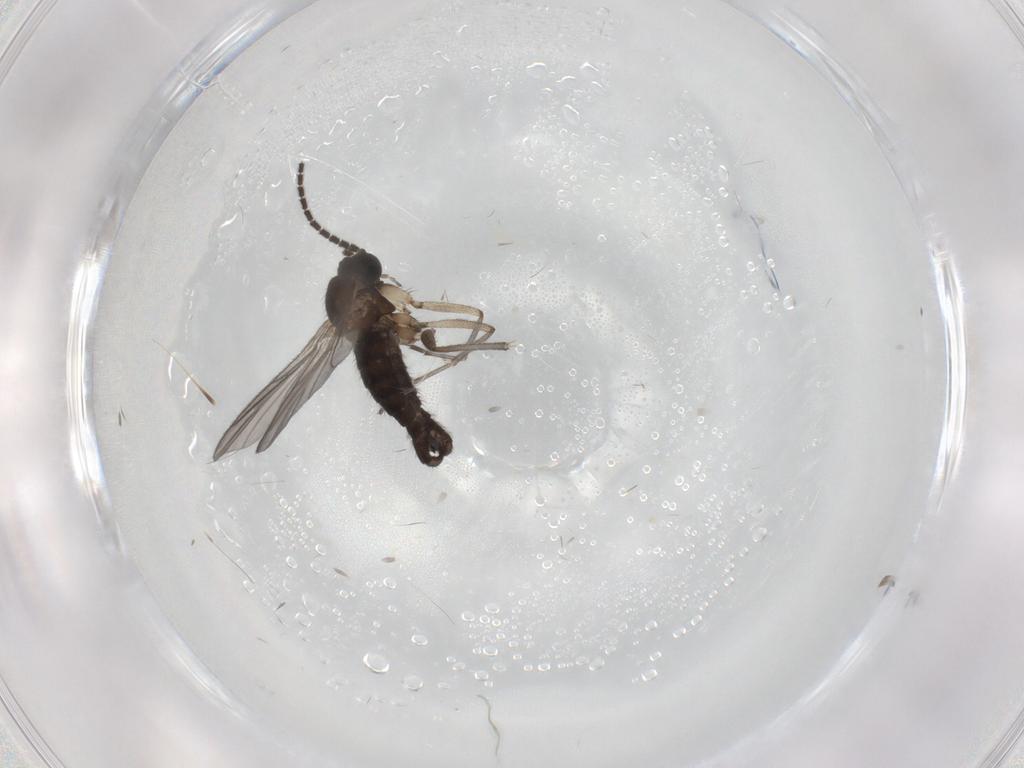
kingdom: Animalia
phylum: Arthropoda
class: Insecta
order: Diptera
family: Sciaridae
